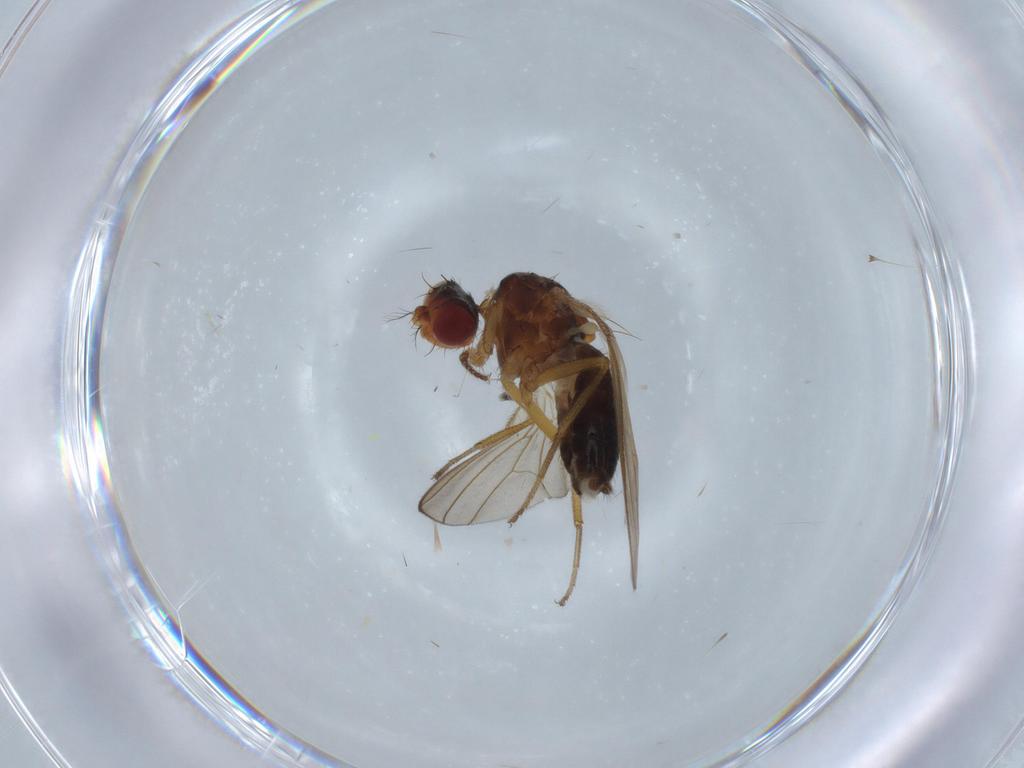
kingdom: Animalia
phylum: Arthropoda
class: Insecta
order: Diptera
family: Drosophilidae
